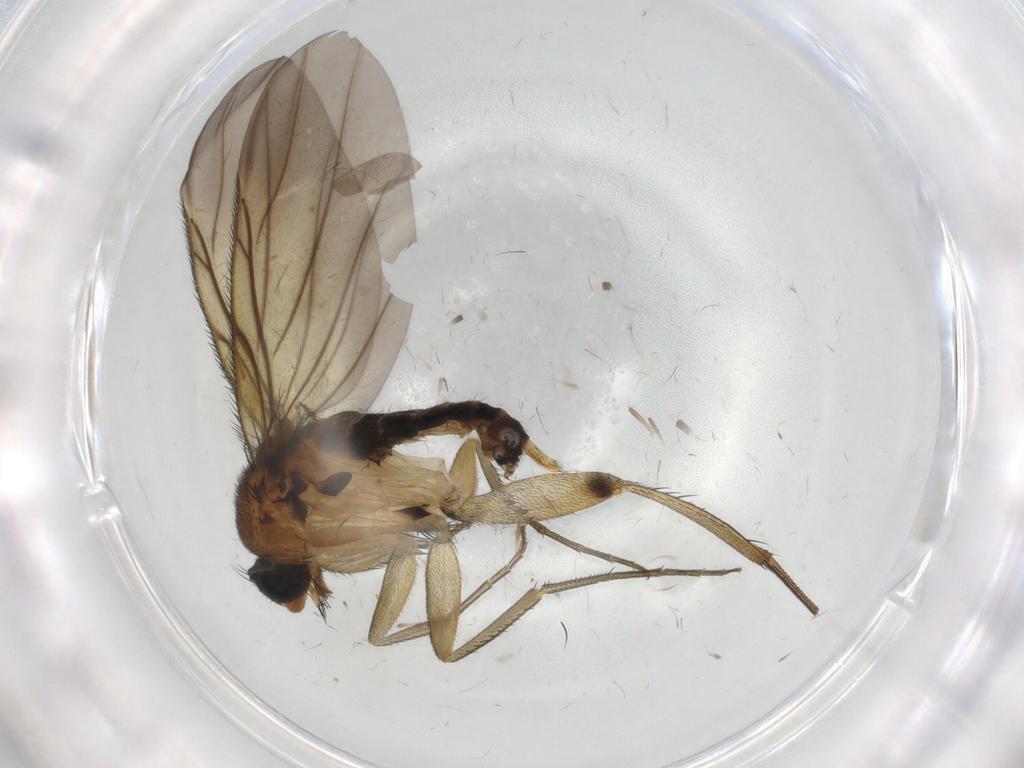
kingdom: Animalia
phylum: Arthropoda
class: Insecta
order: Diptera
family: Phoridae
